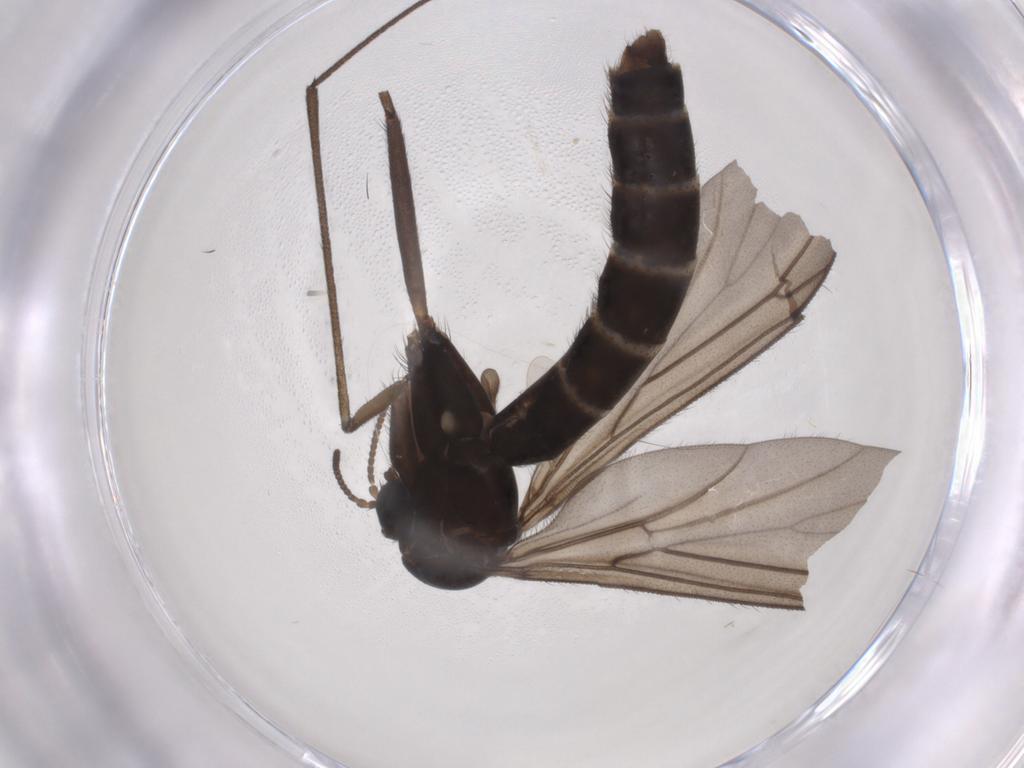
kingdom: Animalia
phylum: Arthropoda
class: Insecta
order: Diptera
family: Ditomyiidae
